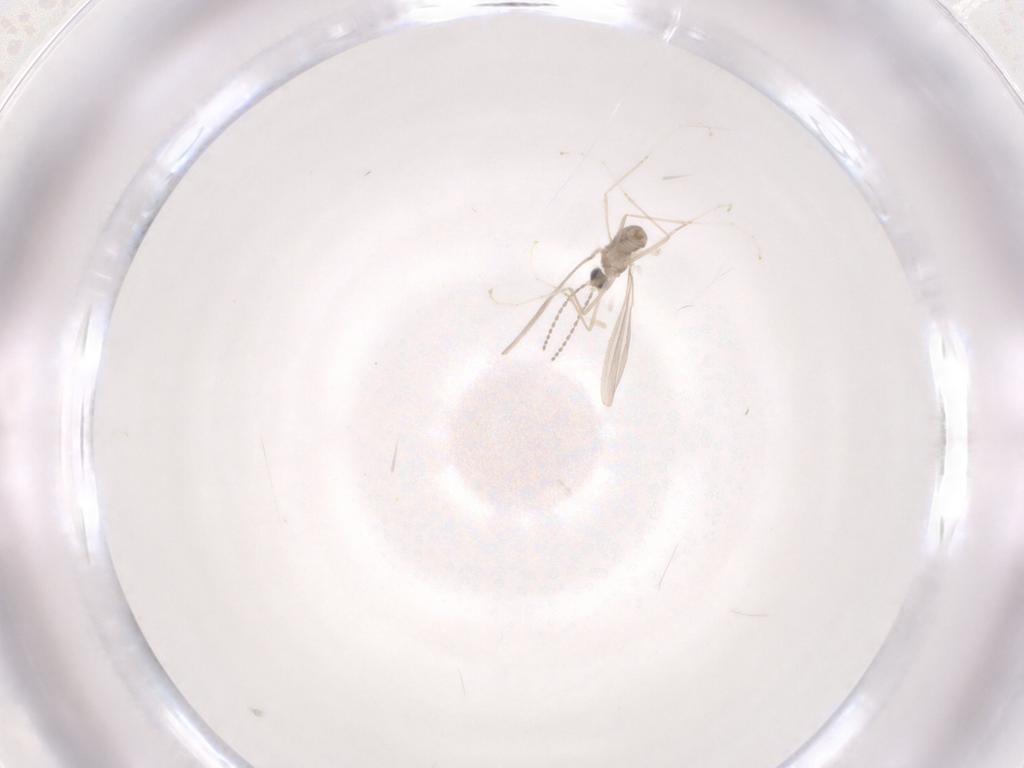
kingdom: Animalia
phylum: Arthropoda
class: Insecta
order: Diptera
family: Cecidomyiidae
